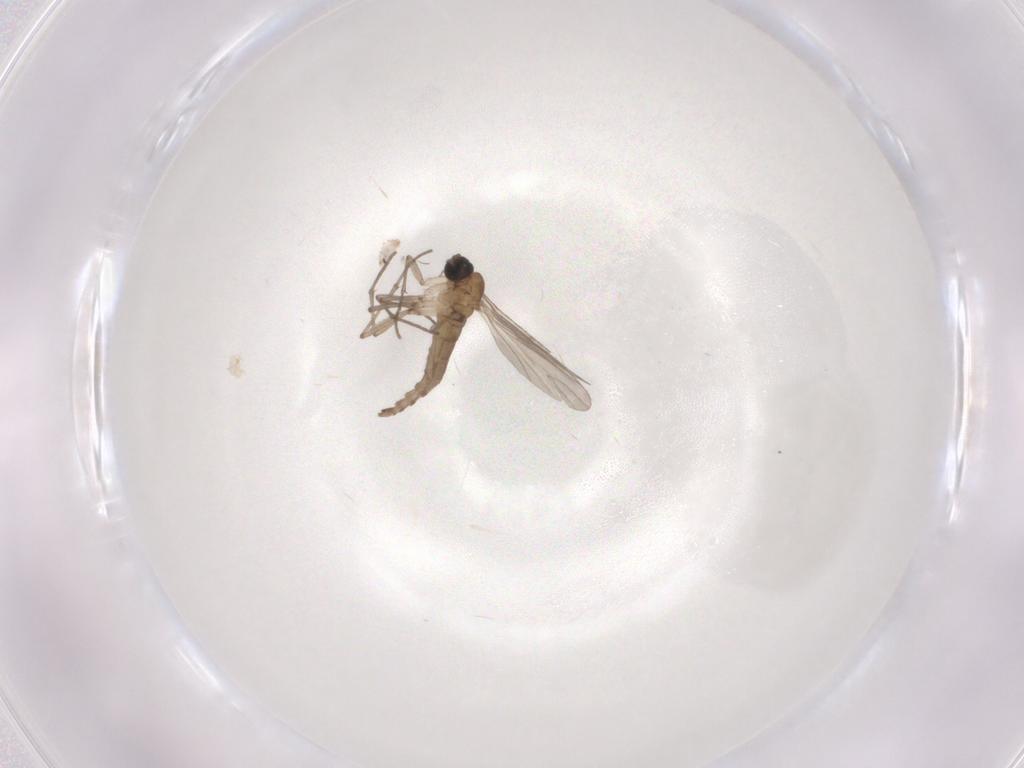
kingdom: Animalia
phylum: Arthropoda
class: Insecta
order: Diptera
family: Sciaridae
